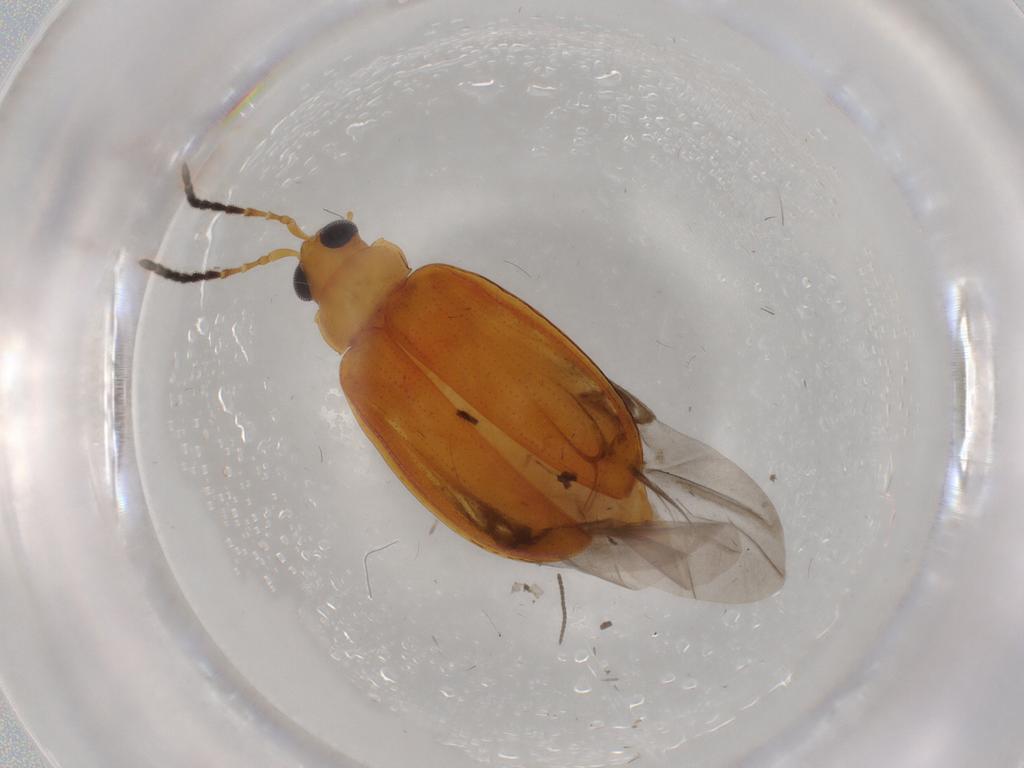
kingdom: Animalia
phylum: Arthropoda
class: Insecta
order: Coleoptera
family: Chrysomelidae
